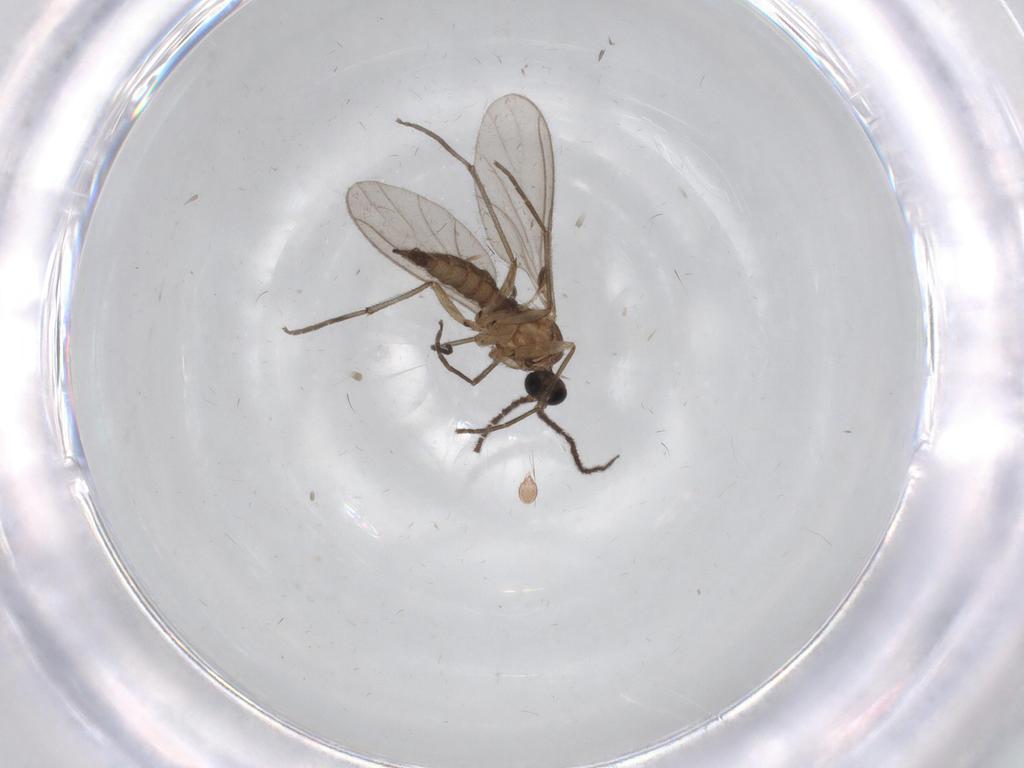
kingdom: Animalia
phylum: Arthropoda
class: Insecta
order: Diptera
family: Sciaridae
